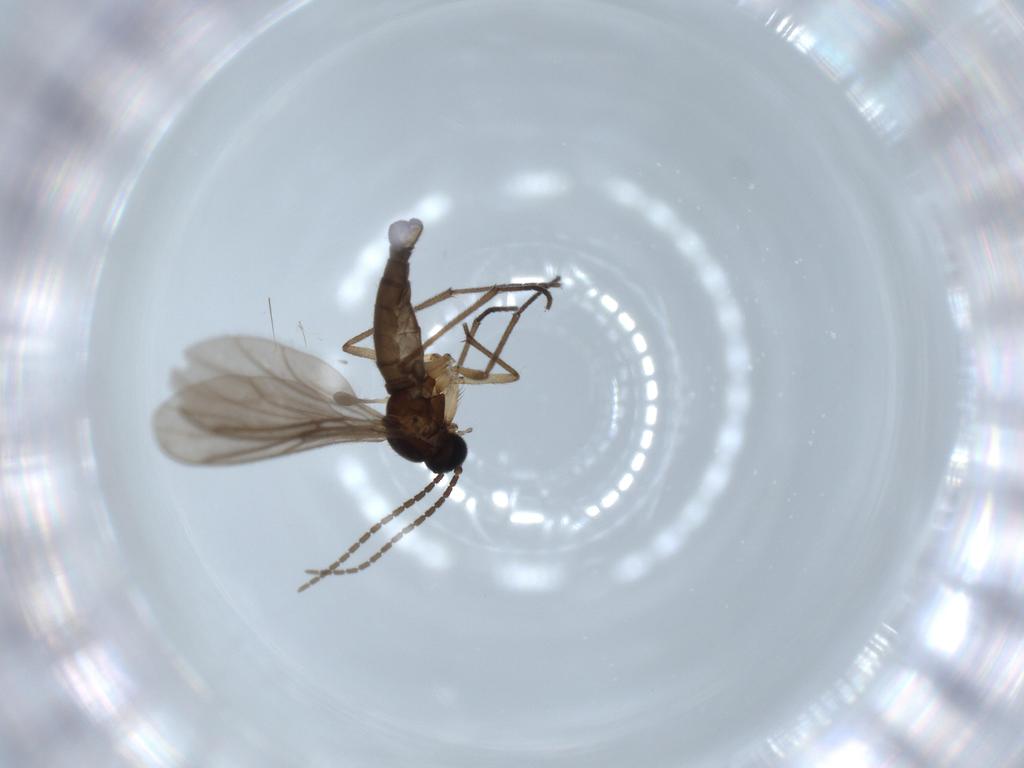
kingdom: Animalia
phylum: Arthropoda
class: Insecta
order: Diptera
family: Sciaridae
